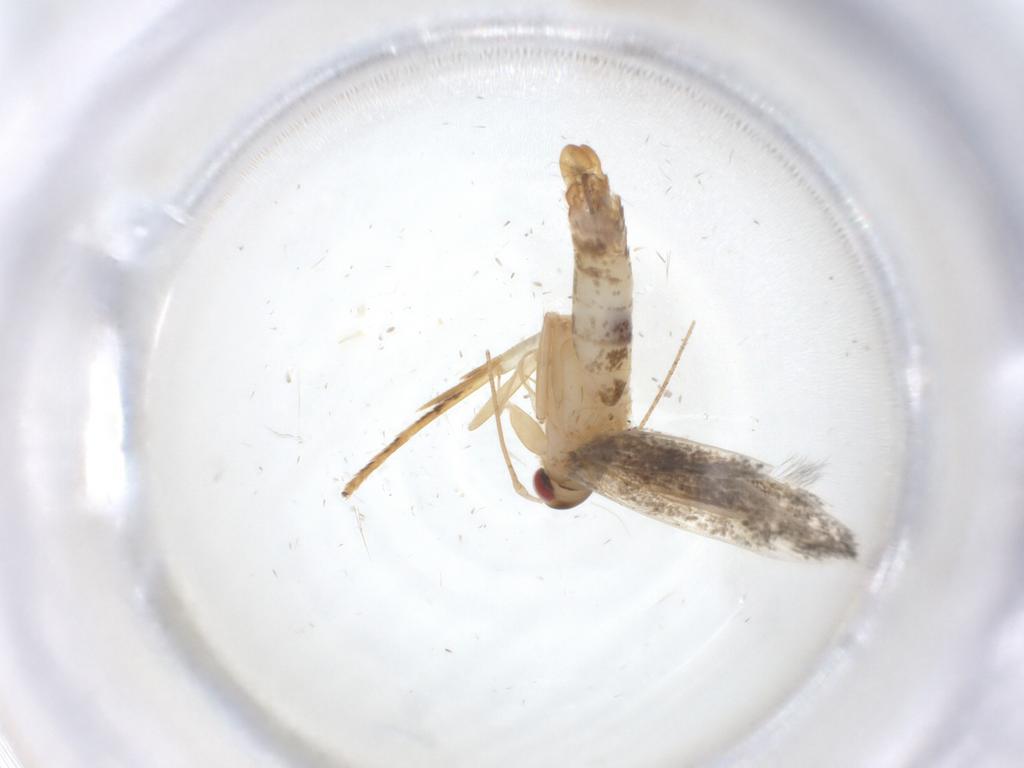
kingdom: Animalia
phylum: Arthropoda
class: Insecta
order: Lepidoptera
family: Cosmopterigidae
